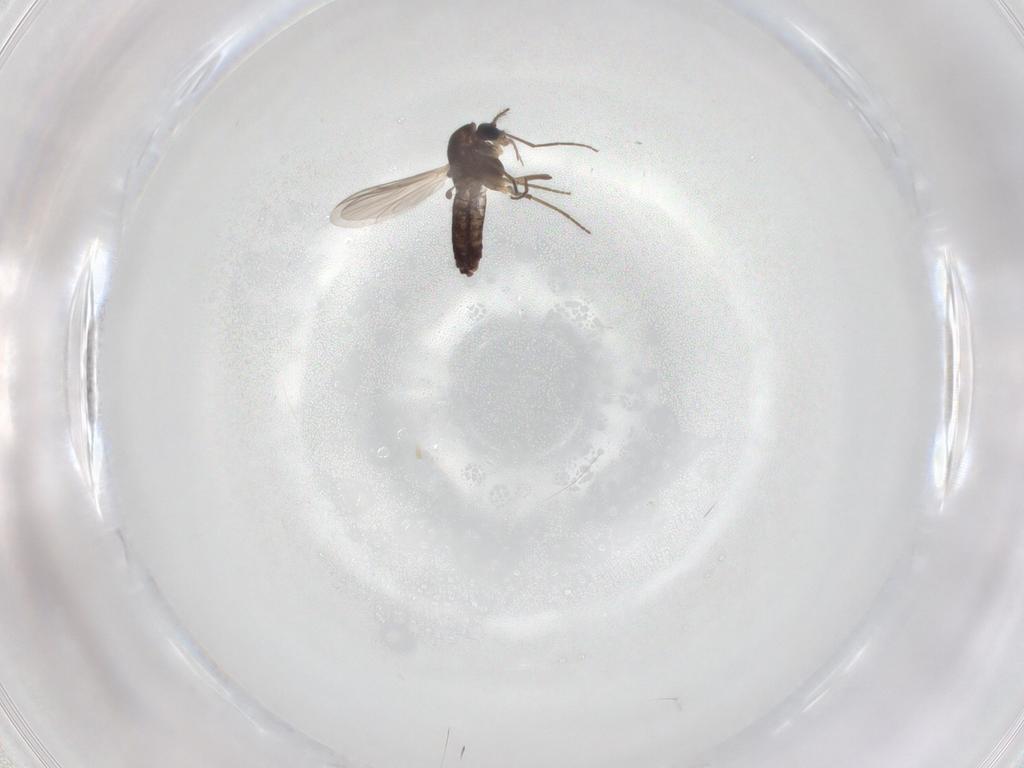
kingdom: Animalia
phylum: Arthropoda
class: Insecta
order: Diptera
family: Chironomidae
